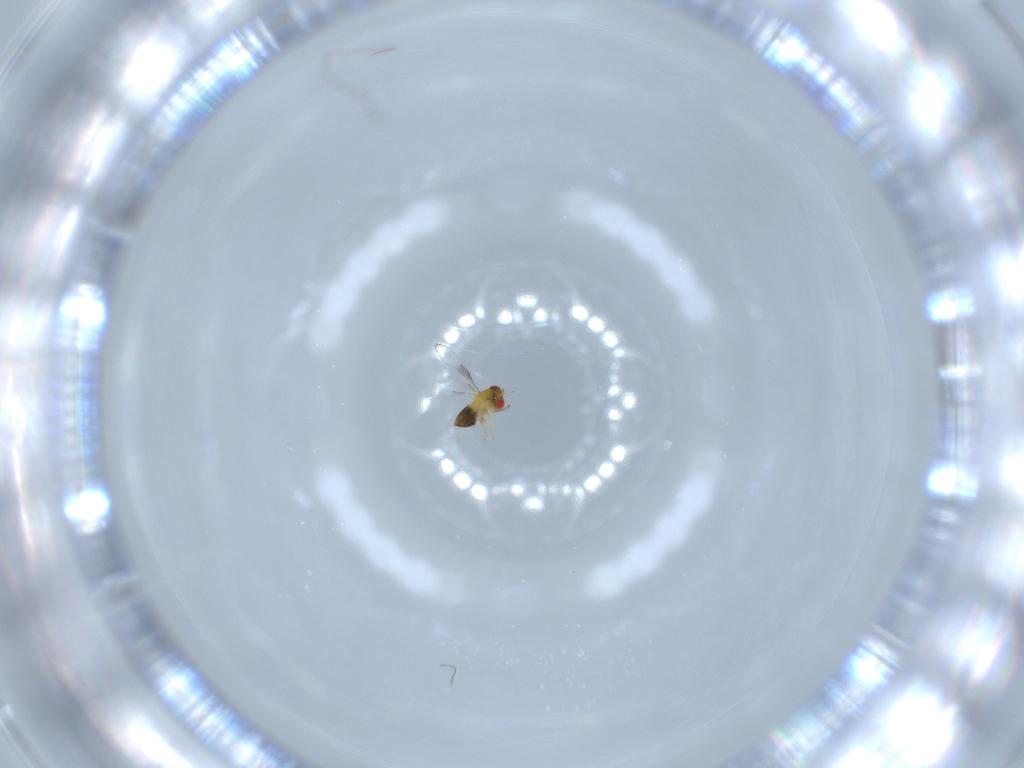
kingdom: Animalia
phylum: Arthropoda
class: Insecta
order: Hymenoptera
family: Trichogrammatidae
